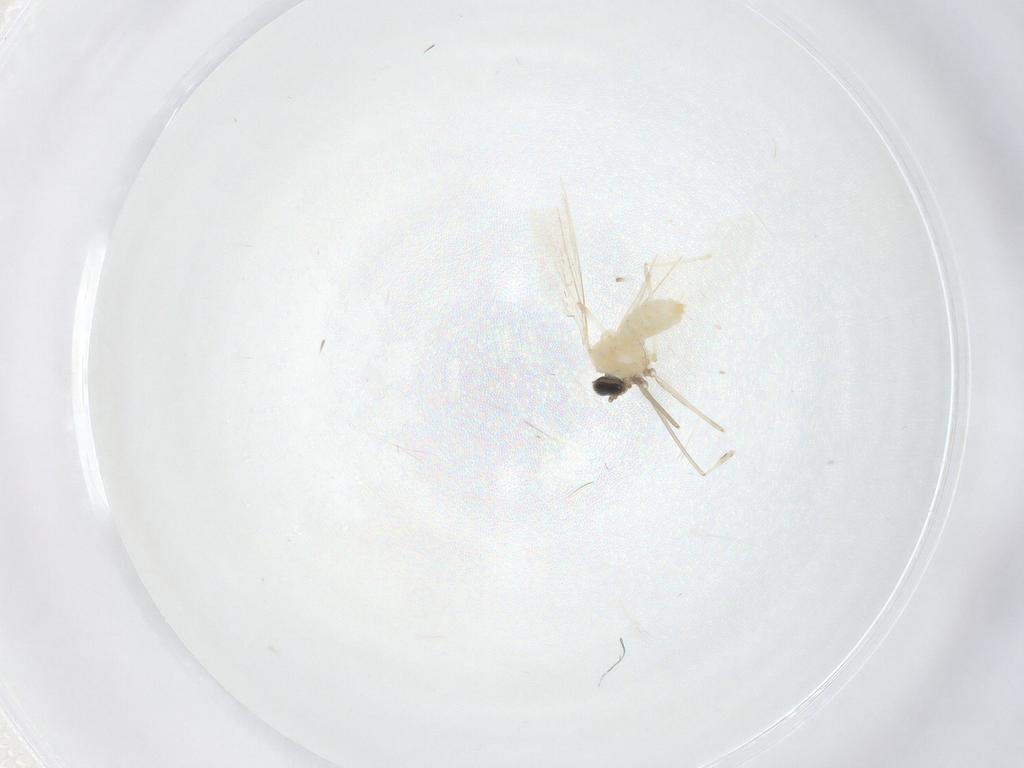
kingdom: Animalia
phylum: Arthropoda
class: Insecta
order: Diptera
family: Cecidomyiidae
